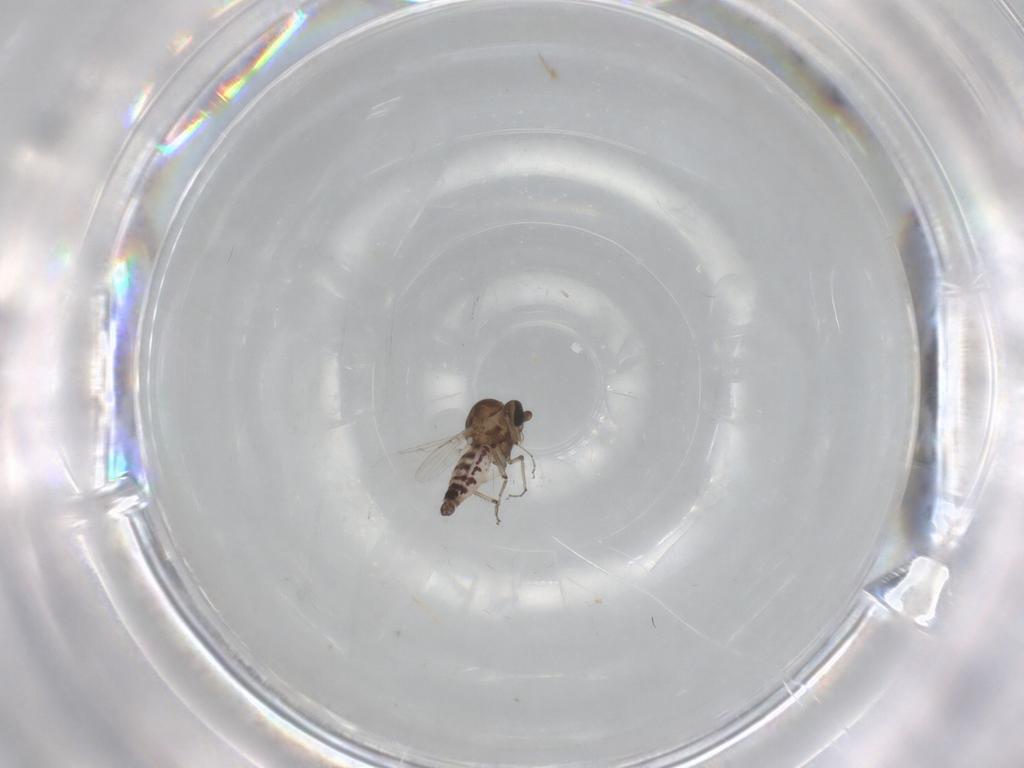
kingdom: Animalia
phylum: Arthropoda
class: Insecta
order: Diptera
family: Ceratopogonidae
